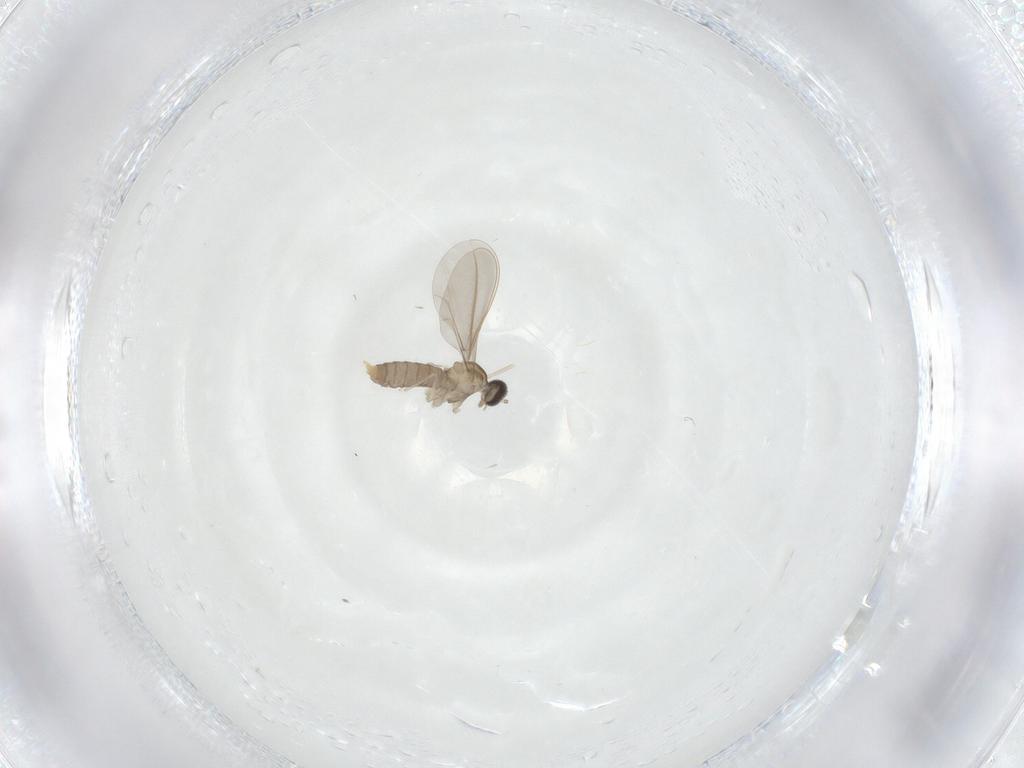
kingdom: Animalia
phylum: Arthropoda
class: Insecta
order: Diptera
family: Cecidomyiidae
